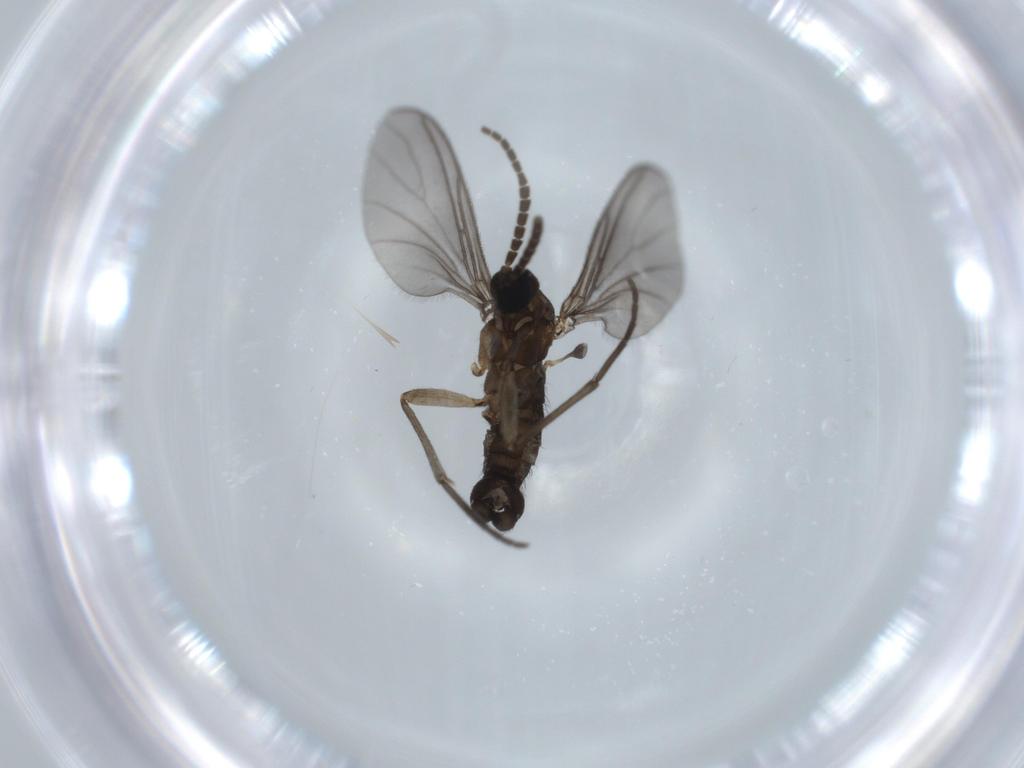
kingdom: Animalia
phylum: Arthropoda
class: Insecta
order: Diptera
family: Sciaridae
